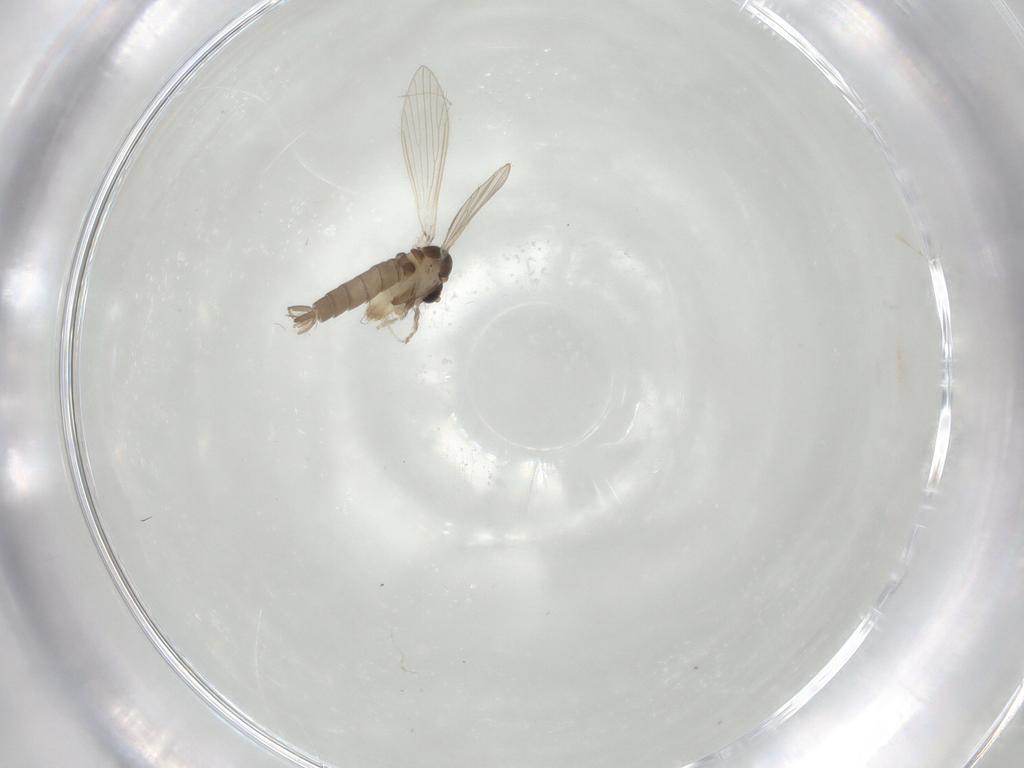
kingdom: Animalia
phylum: Arthropoda
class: Insecta
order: Diptera
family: Psychodidae
